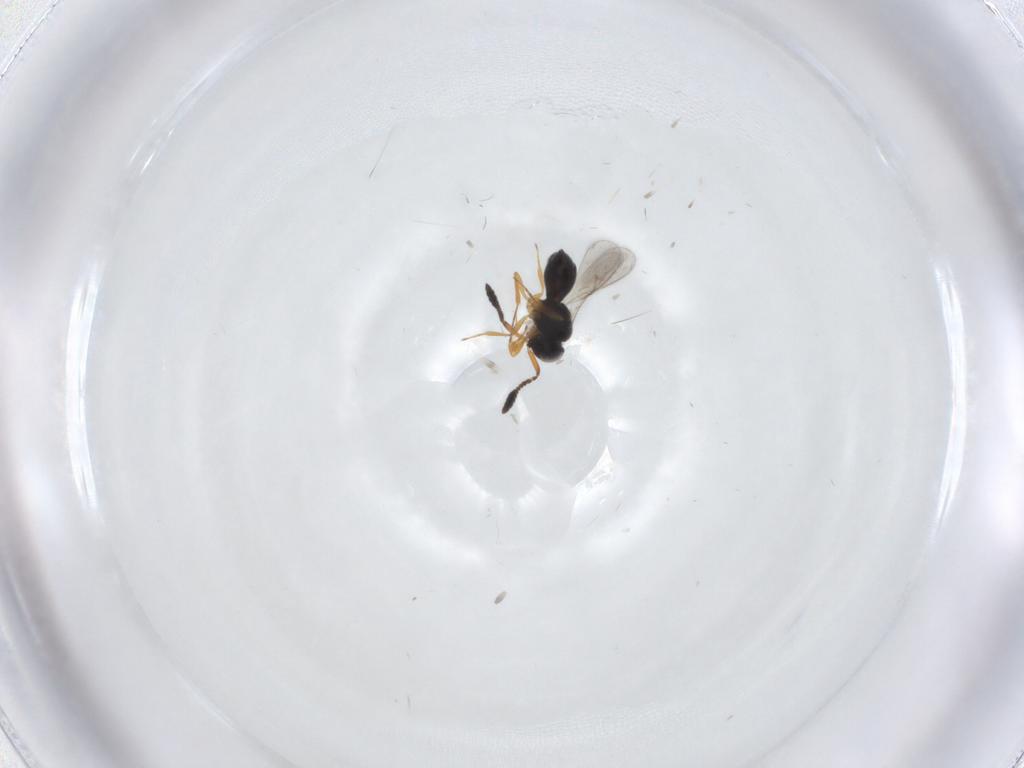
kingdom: Animalia
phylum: Arthropoda
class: Insecta
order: Hymenoptera
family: Scelionidae
